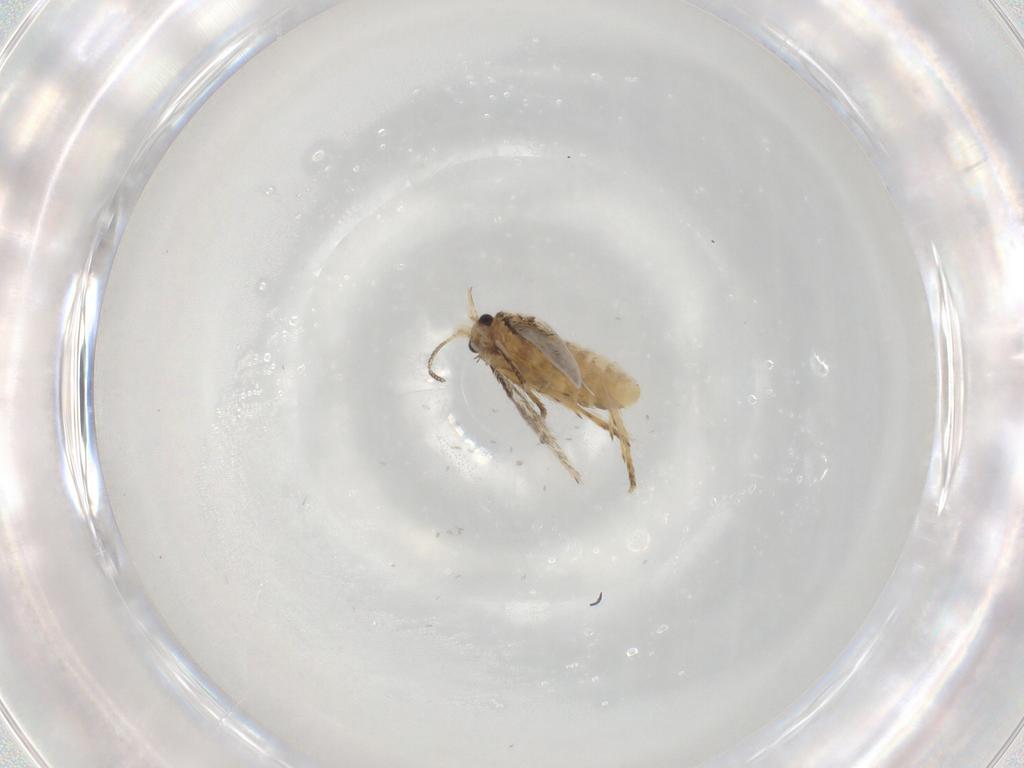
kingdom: Animalia
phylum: Arthropoda
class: Insecta
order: Lepidoptera
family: Nepticulidae
